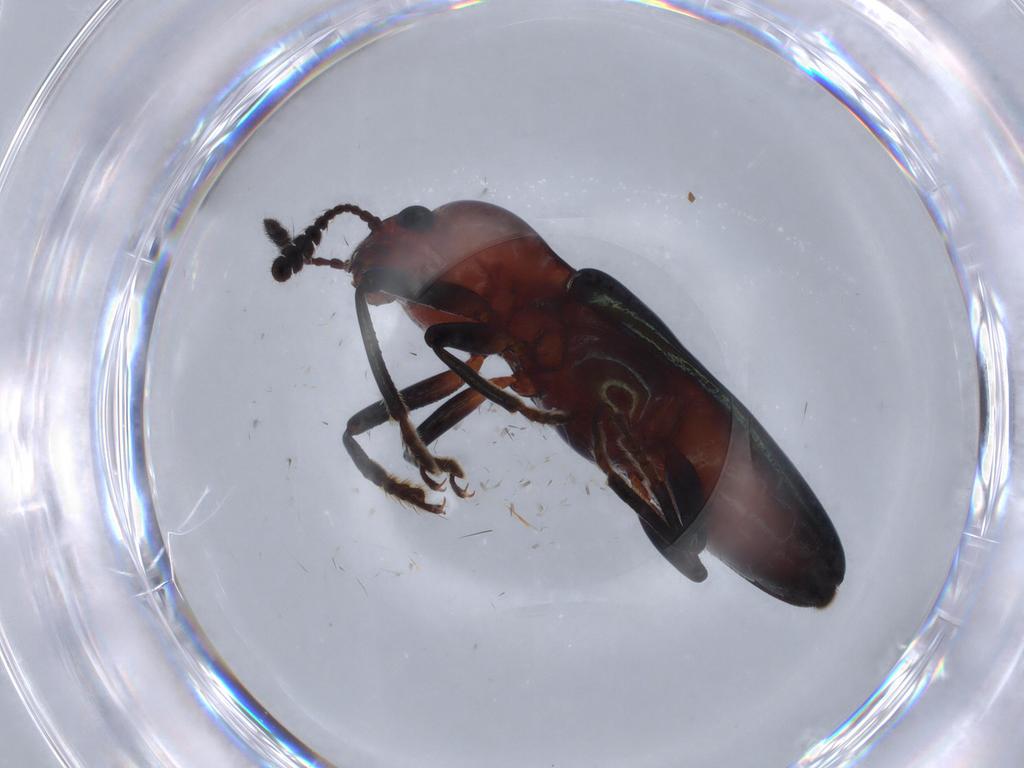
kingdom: Animalia
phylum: Arthropoda
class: Insecta
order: Coleoptera
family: Erotylidae
